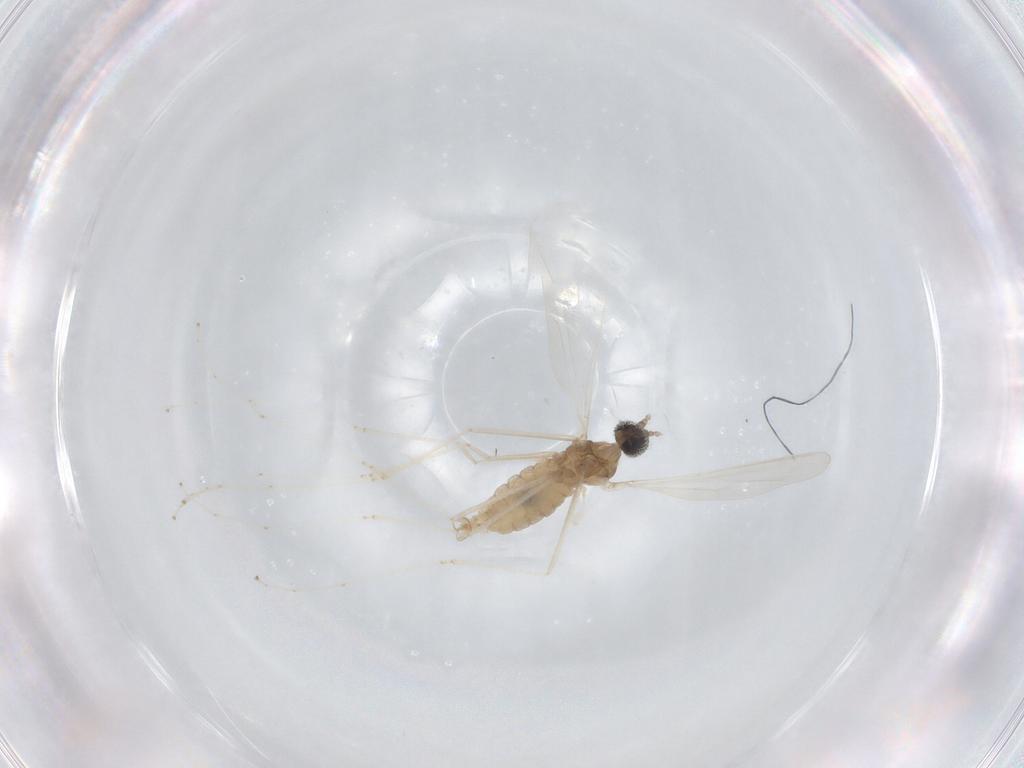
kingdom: Animalia
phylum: Arthropoda
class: Insecta
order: Diptera
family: Cecidomyiidae
